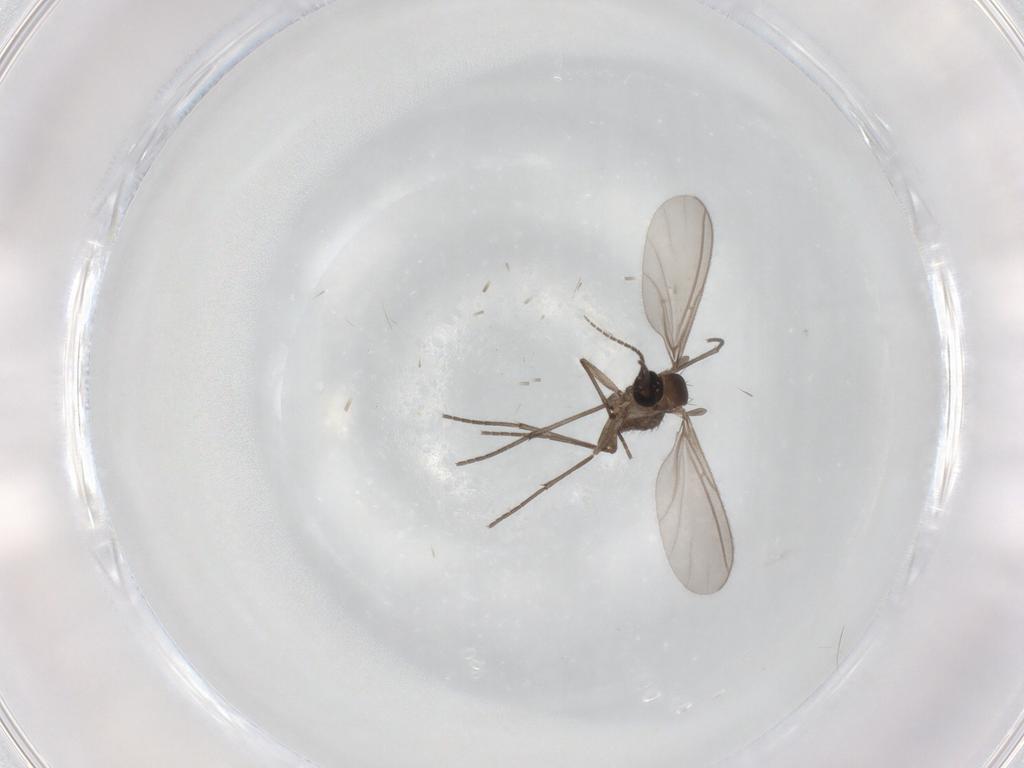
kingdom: Animalia
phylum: Arthropoda
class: Insecta
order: Diptera
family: Sciaridae
